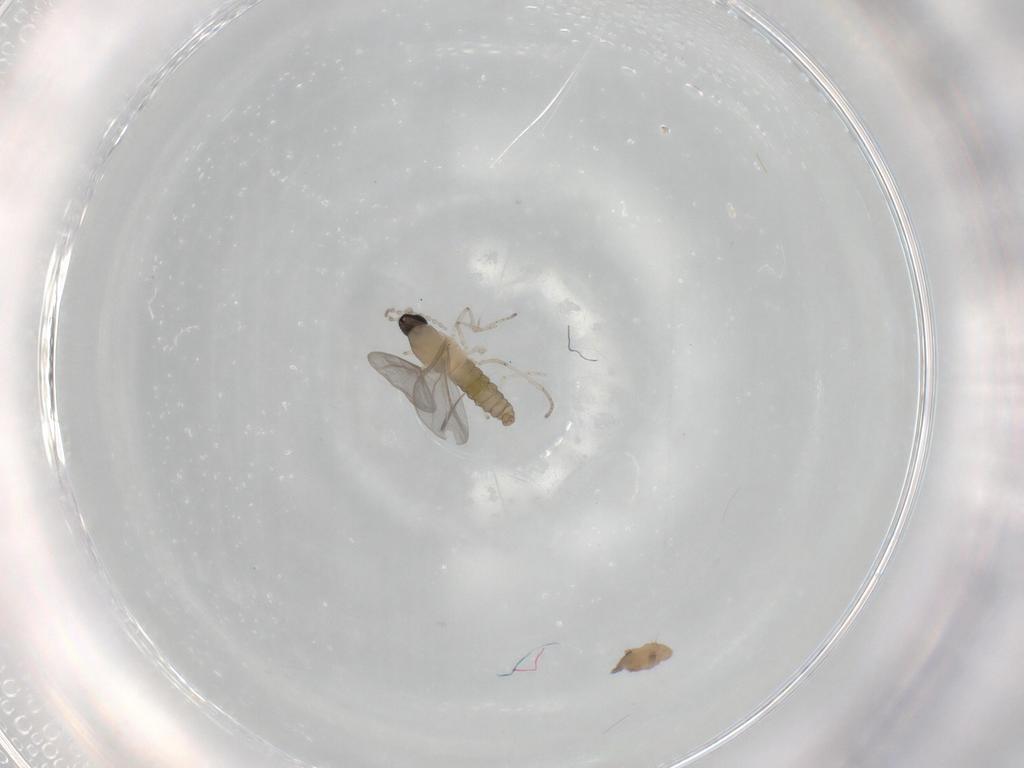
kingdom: Animalia
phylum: Arthropoda
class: Insecta
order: Diptera
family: Cecidomyiidae
